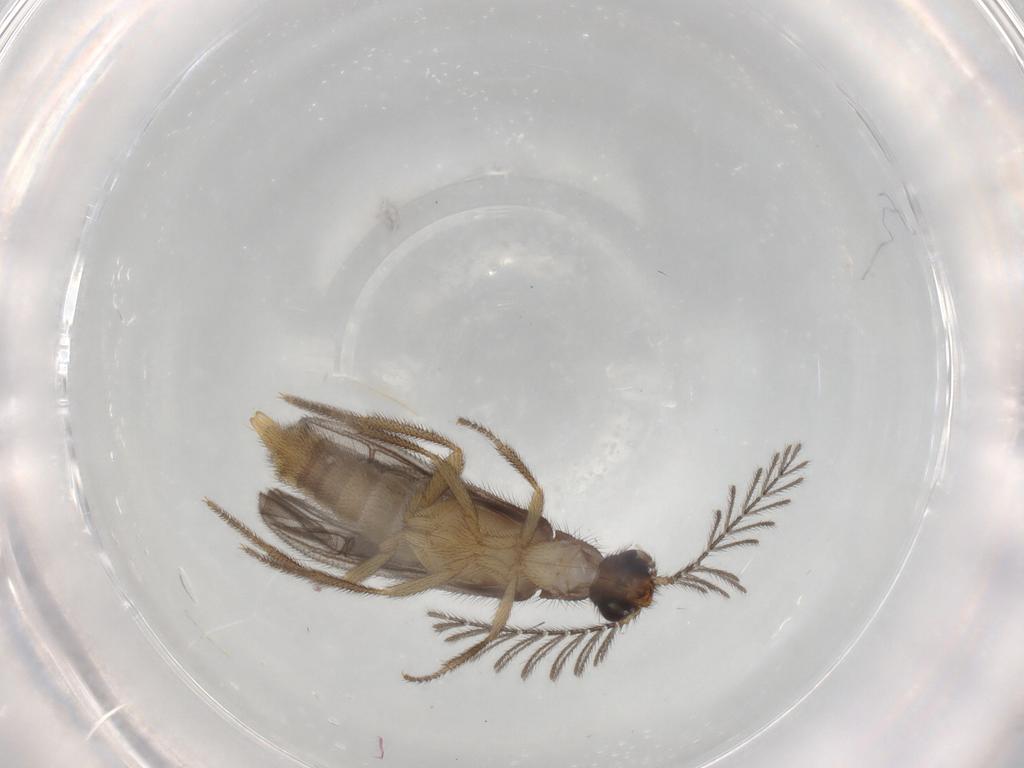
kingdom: Animalia
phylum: Arthropoda
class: Insecta
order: Coleoptera
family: Phengodidae
